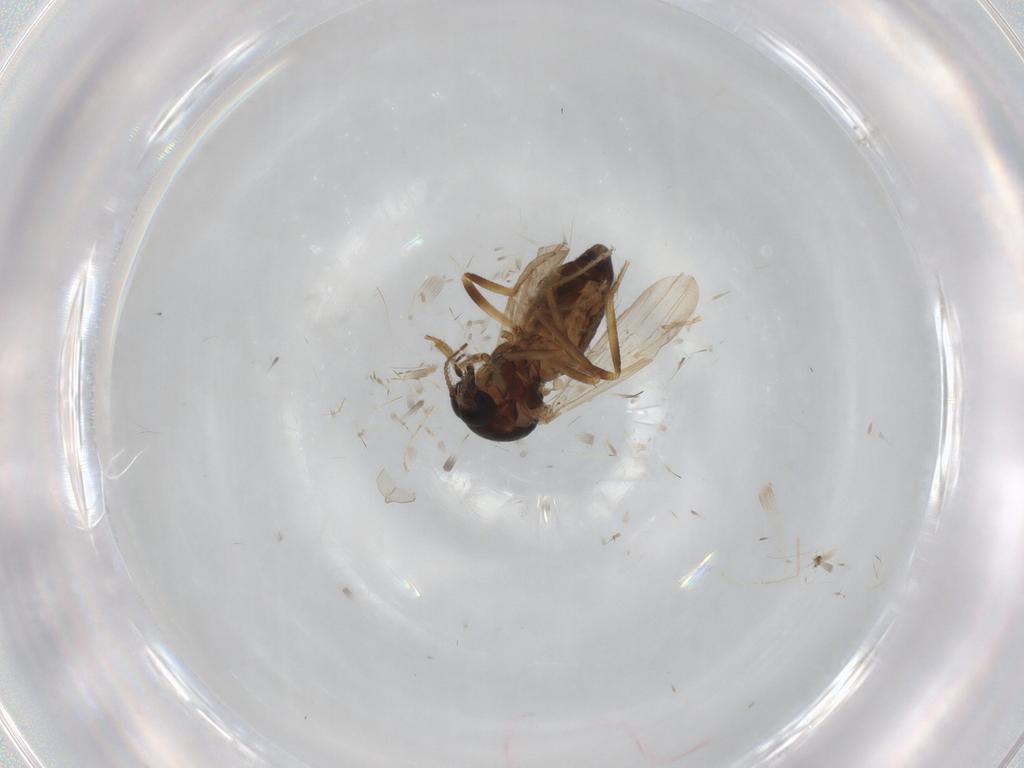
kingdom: Animalia
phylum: Arthropoda
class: Insecta
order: Diptera
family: Ceratopogonidae
